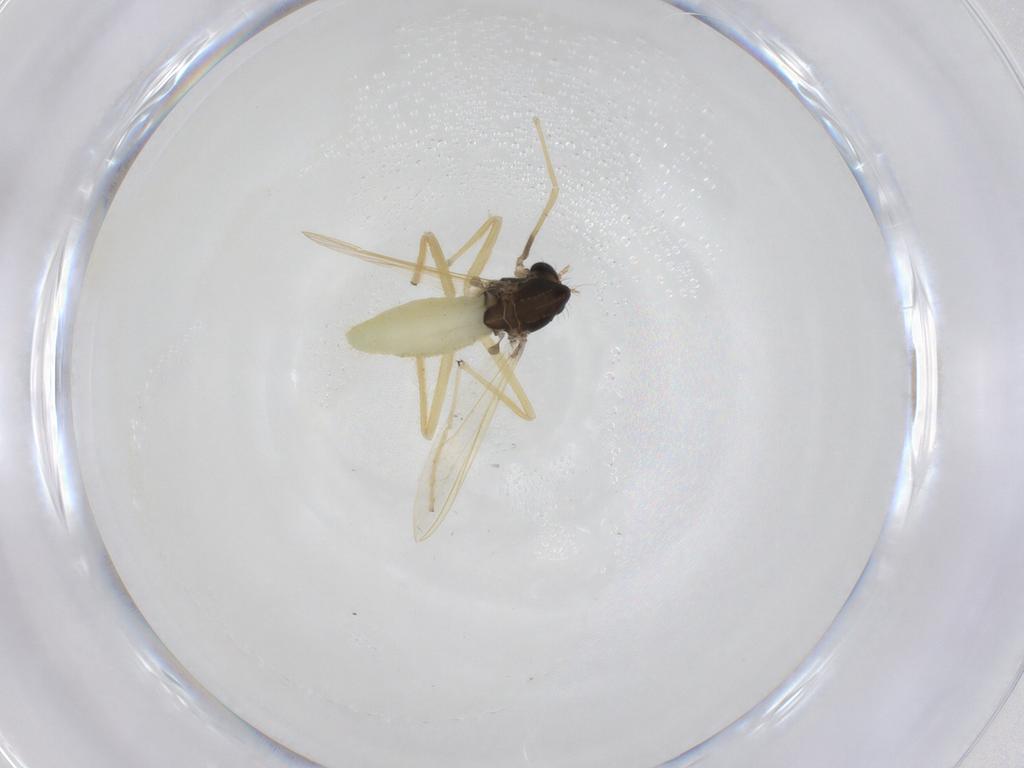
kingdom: Animalia
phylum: Arthropoda
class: Insecta
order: Diptera
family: Chironomidae
